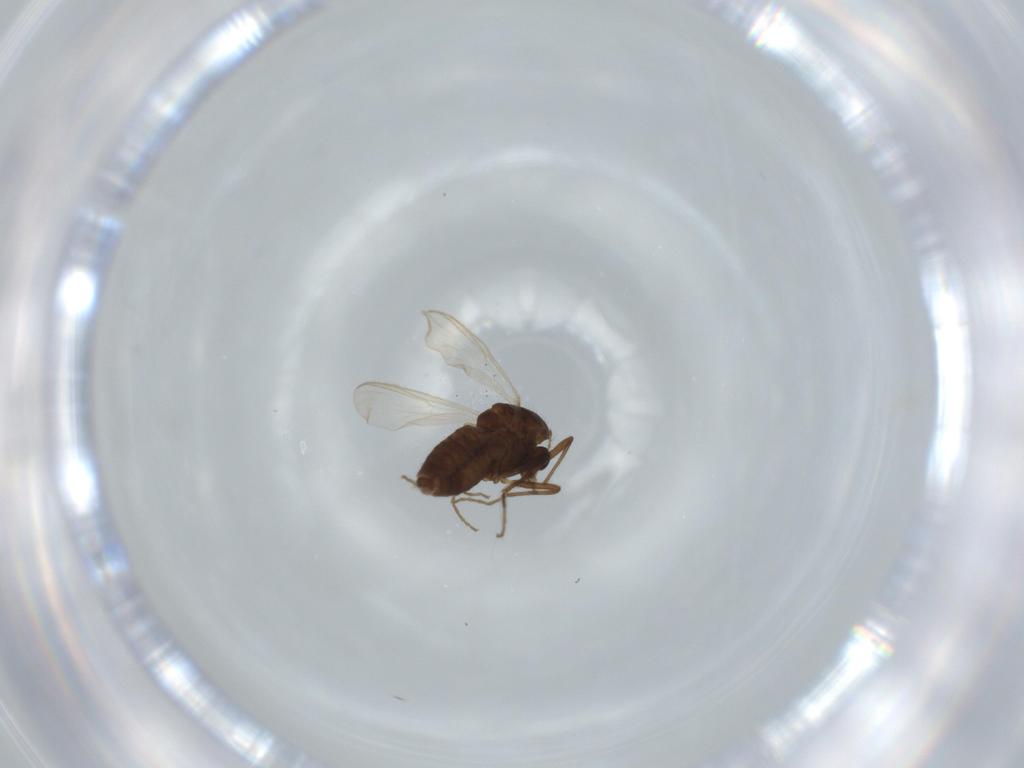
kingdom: Animalia
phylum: Arthropoda
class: Insecta
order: Diptera
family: Chironomidae
